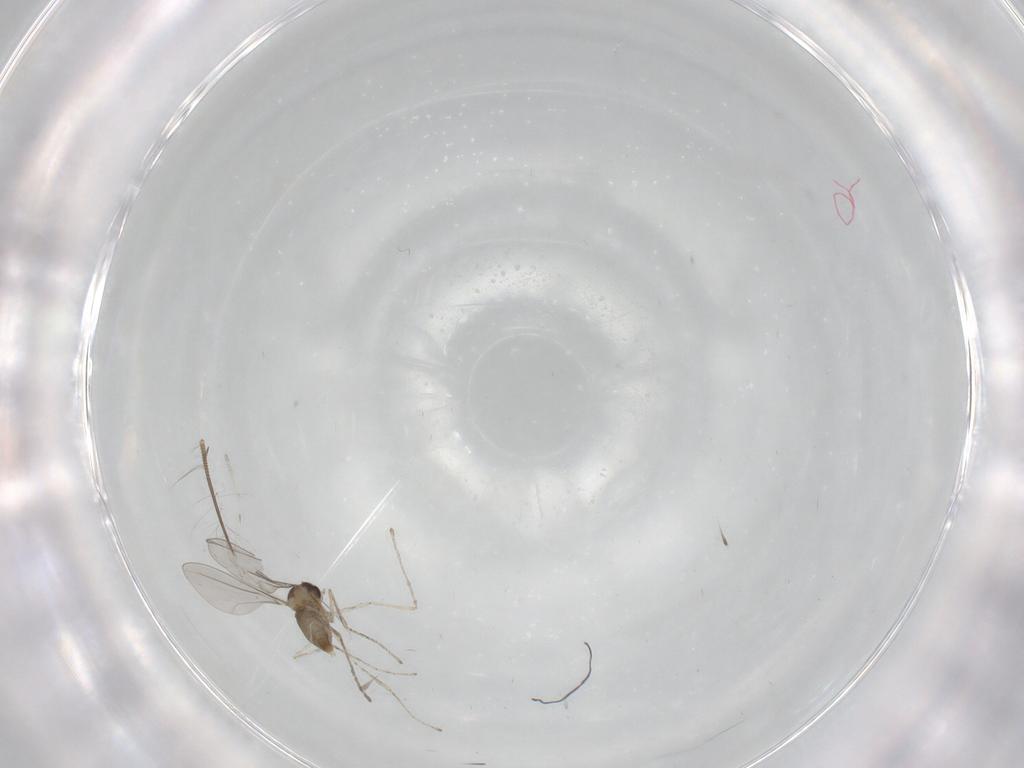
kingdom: Animalia
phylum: Arthropoda
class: Insecta
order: Diptera
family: Cecidomyiidae
